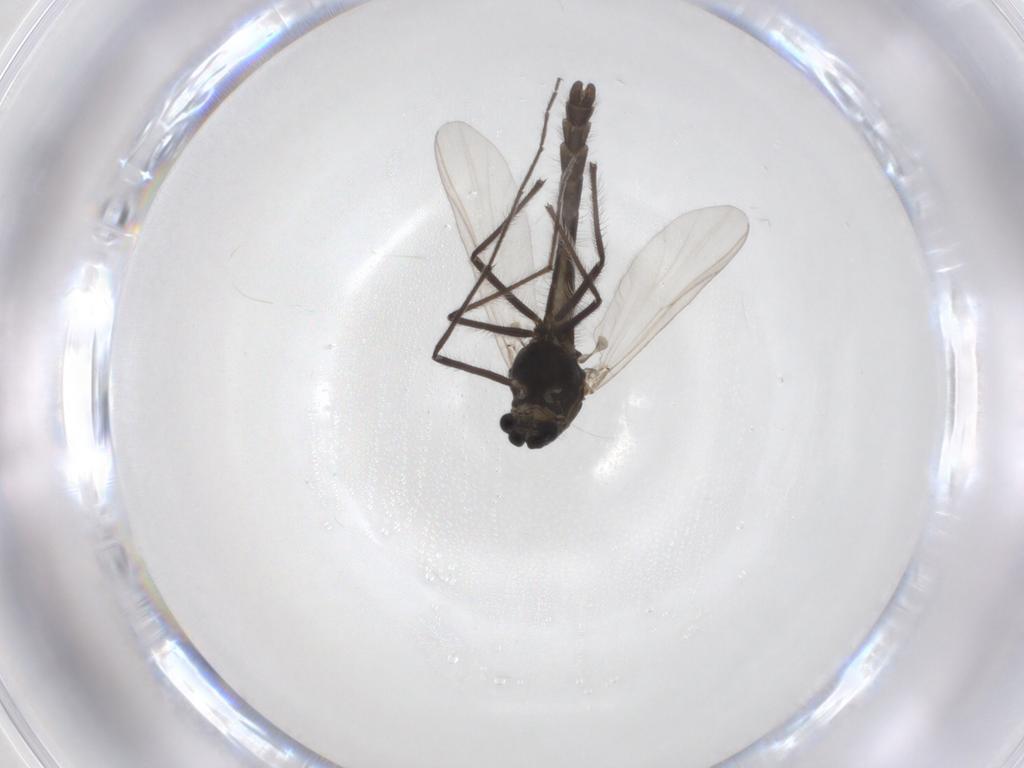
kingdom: Animalia
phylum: Arthropoda
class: Insecta
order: Diptera
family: Chironomidae
